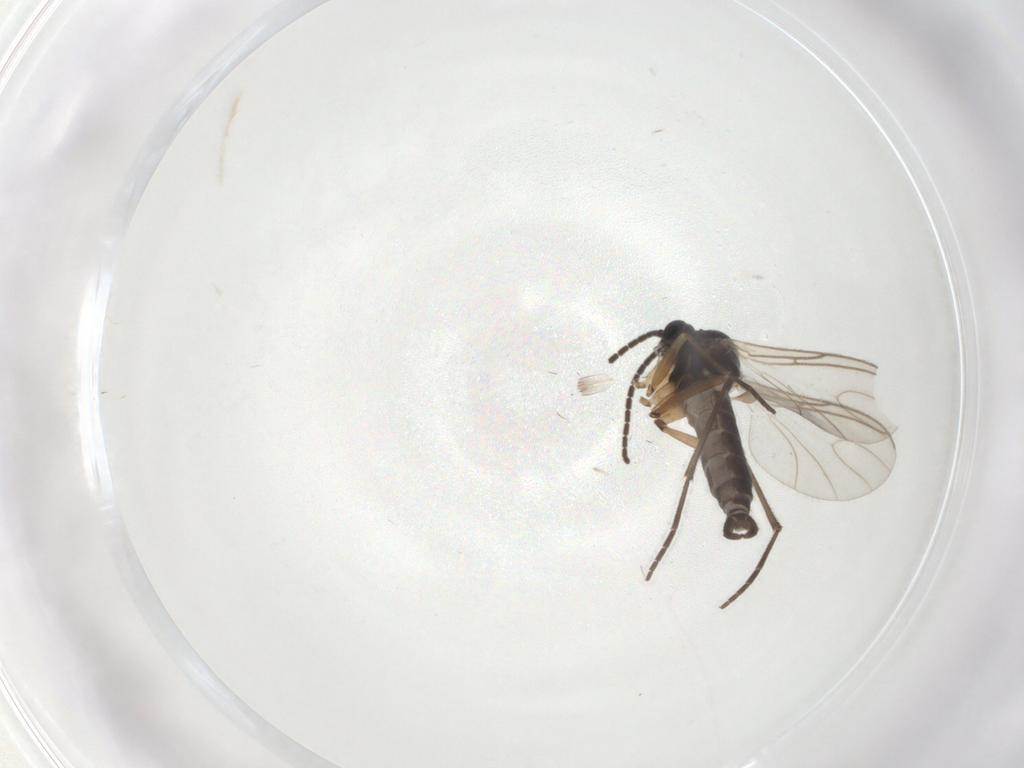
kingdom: Animalia
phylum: Arthropoda
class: Insecta
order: Diptera
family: Sciaridae
